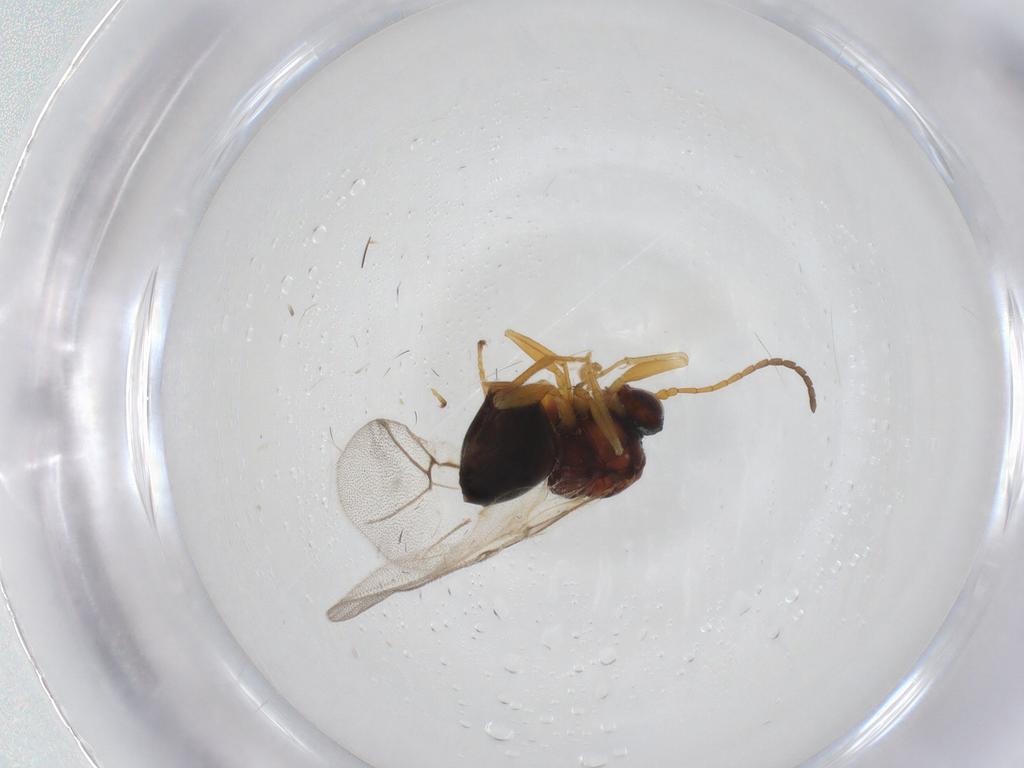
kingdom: Animalia
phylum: Arthropoda
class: Insecta
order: Hymenoptera
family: Cynipidae
